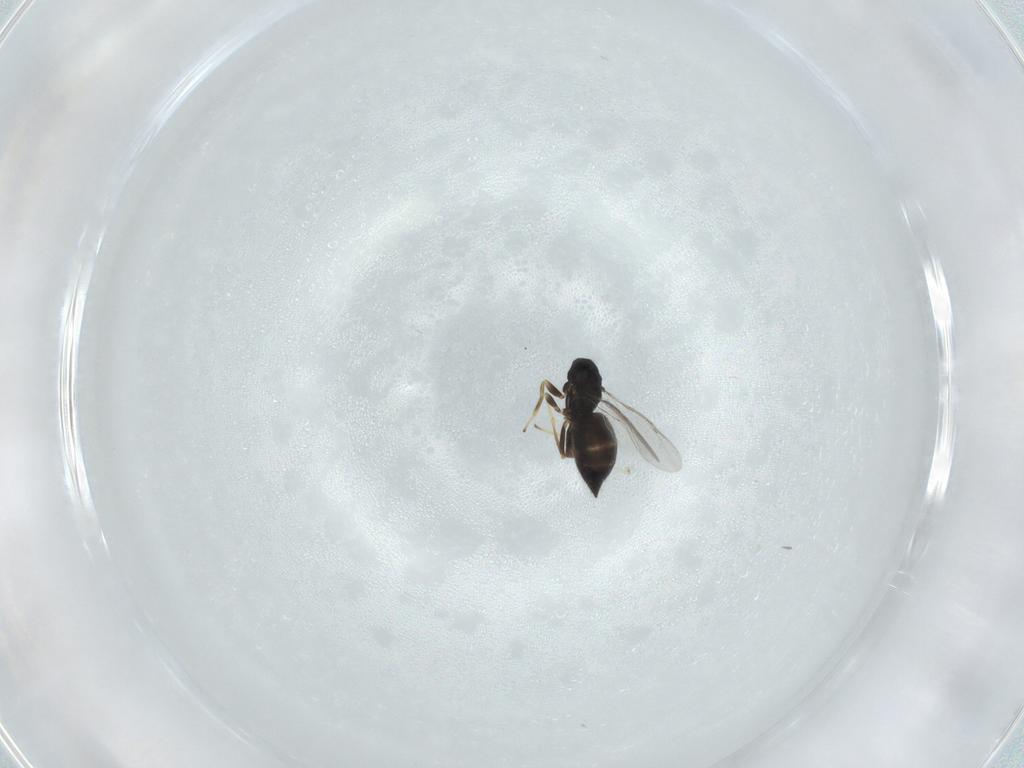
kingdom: Animalia
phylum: Arthropoda
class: Insecta
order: Hymenoptera
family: Eulophidae
